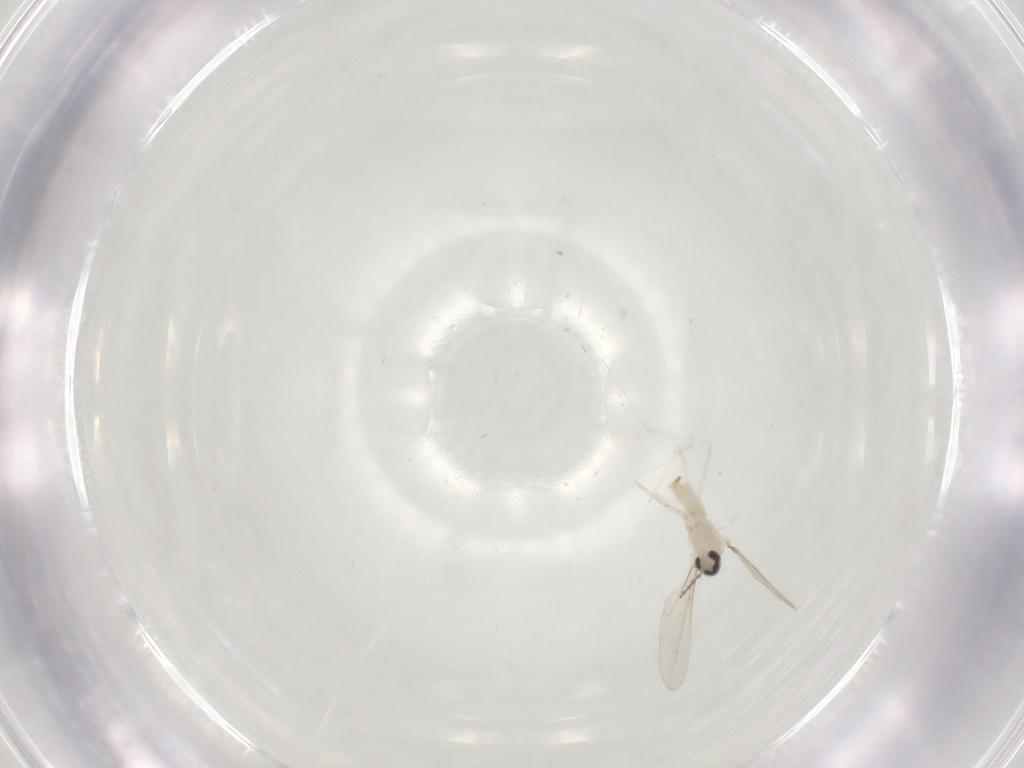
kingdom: Animalia
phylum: Arthropoda
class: Insecta
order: Diptera
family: Cecidomyiidae
